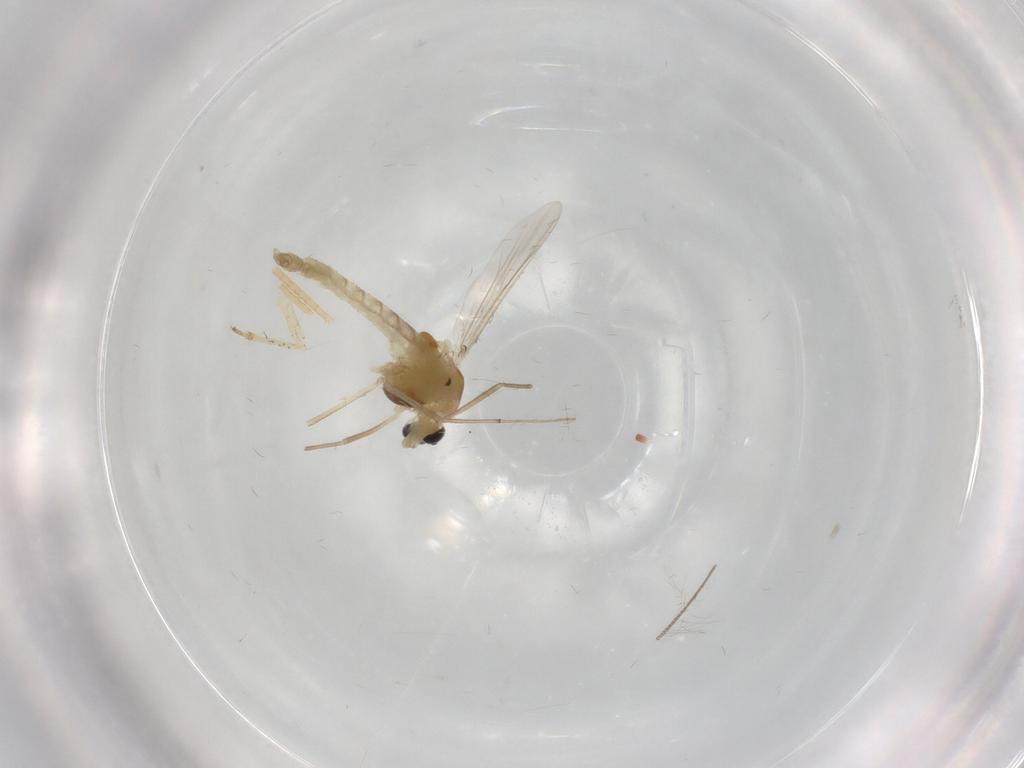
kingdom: Animalia
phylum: Arthropoda
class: Insecta
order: Diptera
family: Chironomidae
